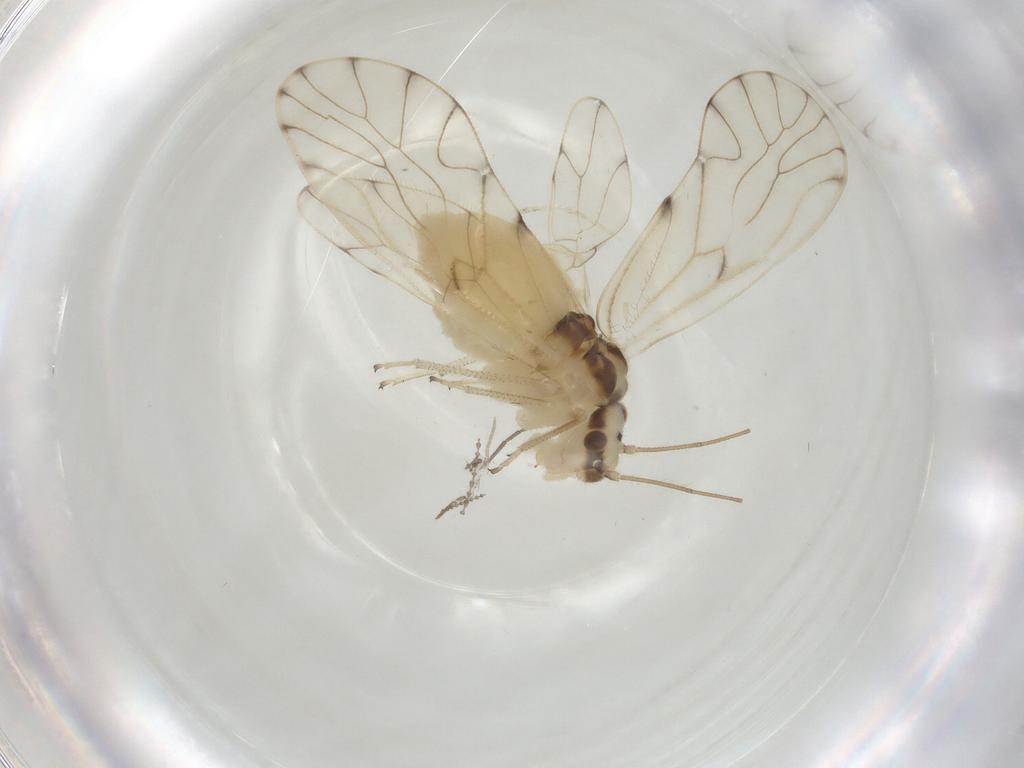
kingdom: Animalia
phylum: Arthropoda
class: Insecta
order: Psocodea
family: Philotarsidae
